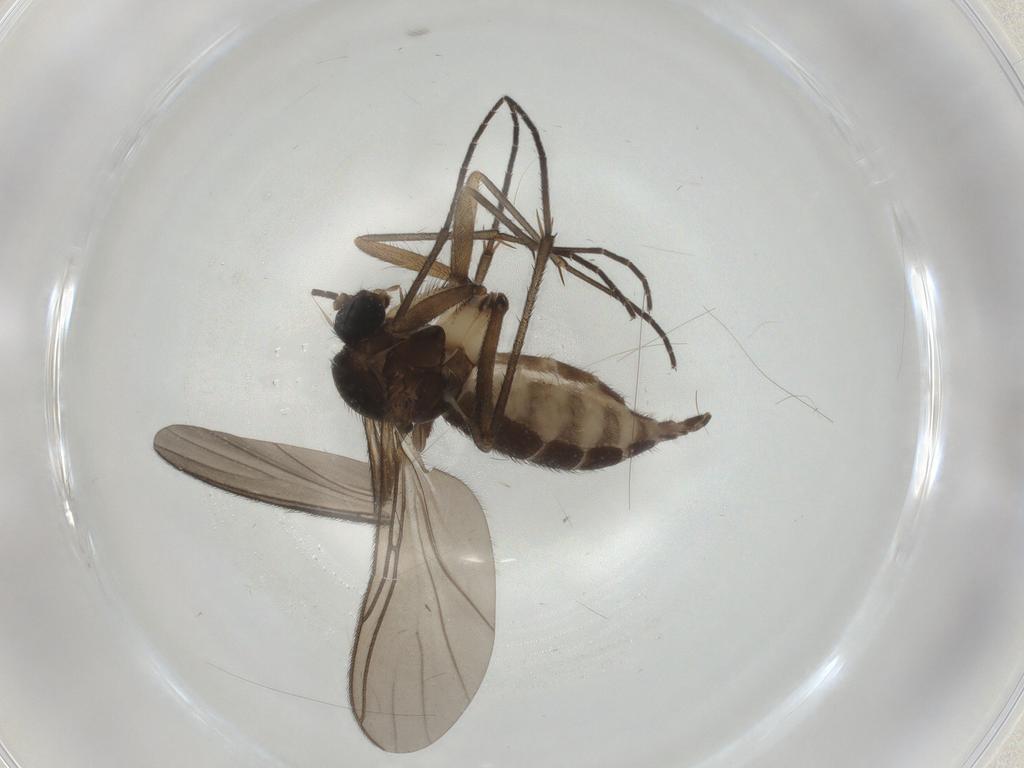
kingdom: Animalia
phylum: Arthropoda
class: Insecta
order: Diptera
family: Sciaridae
